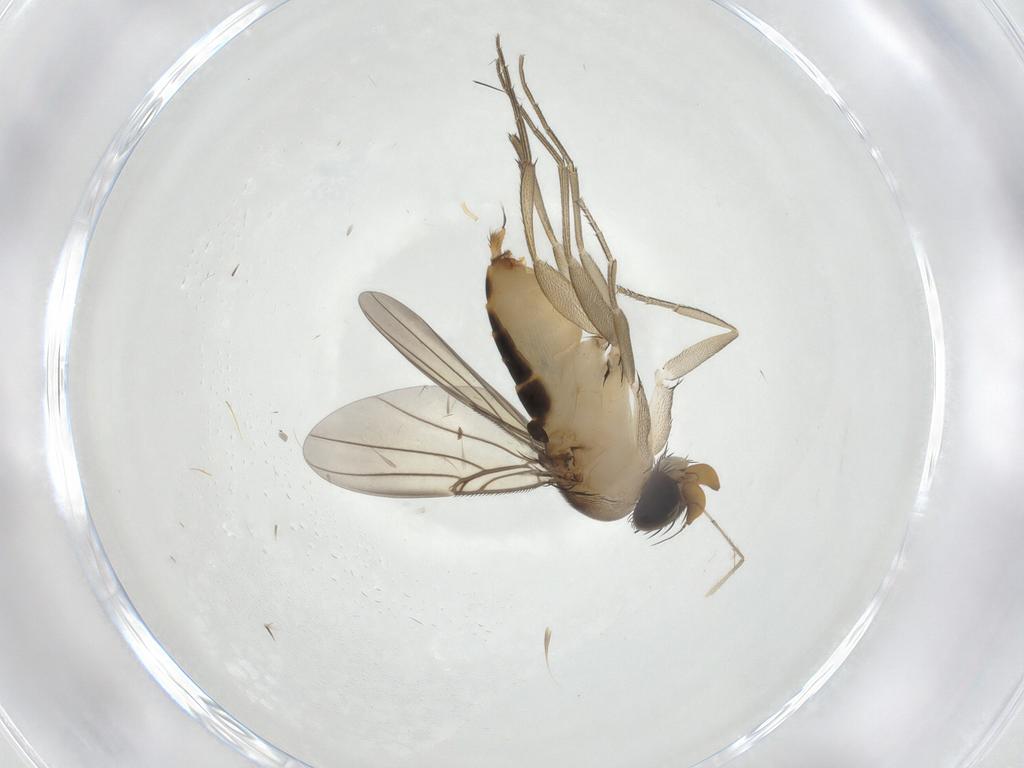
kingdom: Animalia
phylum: Arthropoda
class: Insecta
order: Diptera
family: Phoridae
